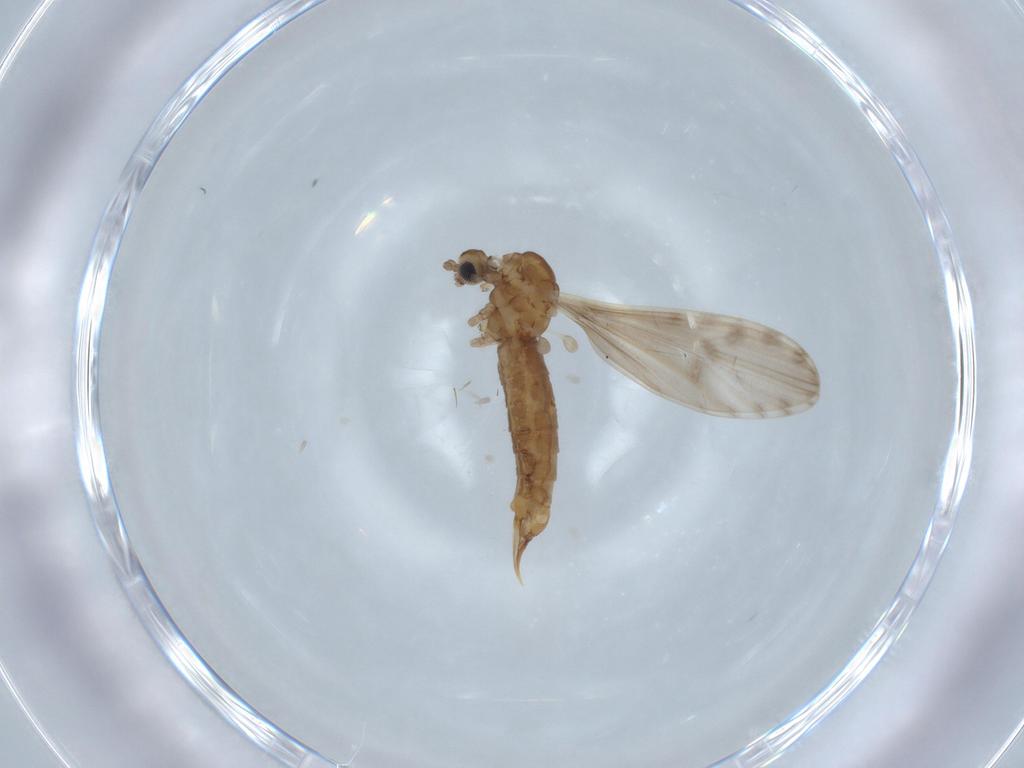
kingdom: Animalia
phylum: Arthropoda
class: Insecta
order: Diptera
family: Limoniidae
